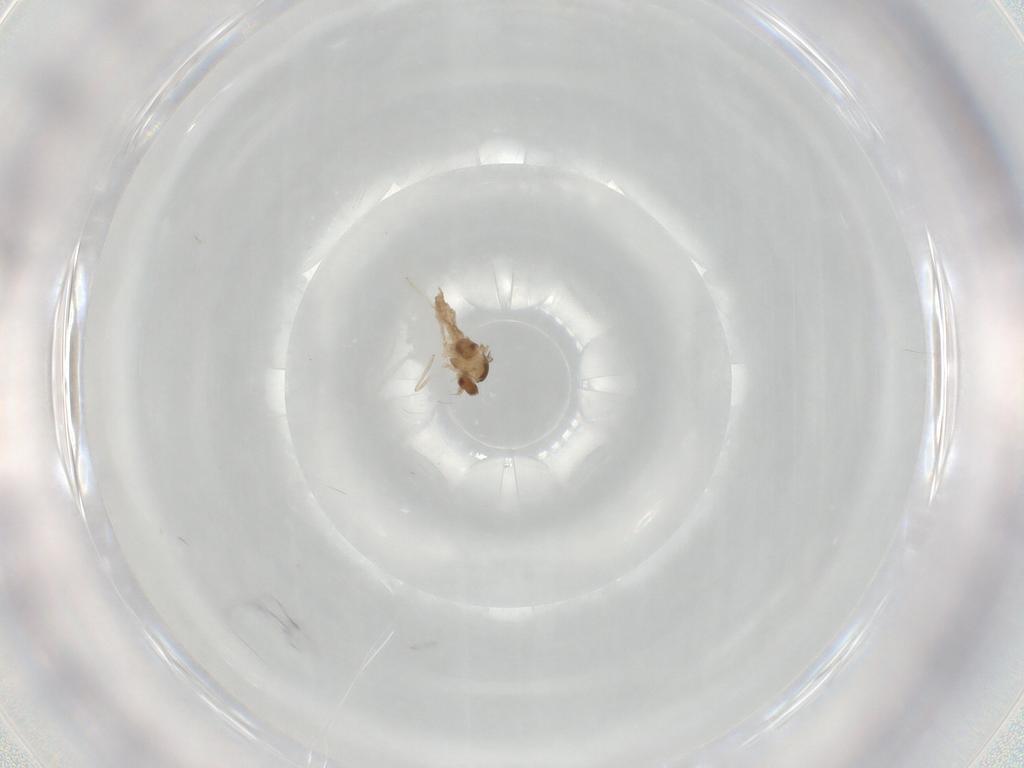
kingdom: Animalia
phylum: Arthropoda
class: Insecta
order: Diptera
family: Cecidomyiidae
